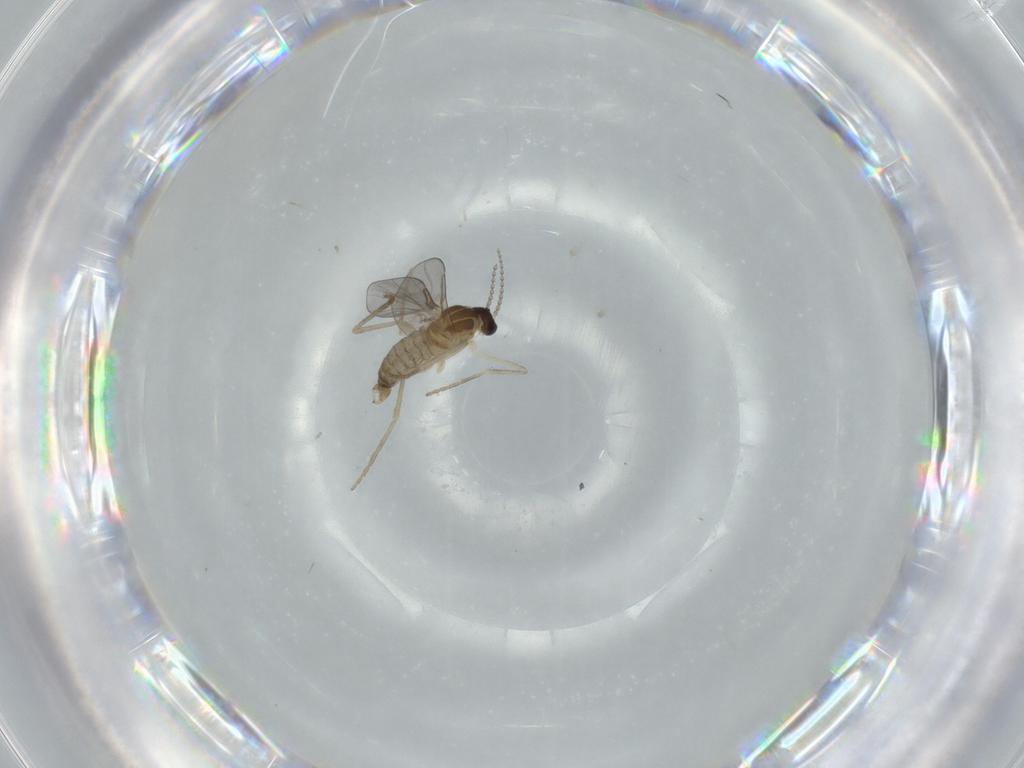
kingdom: Animalia
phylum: Arthropoda
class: Insecta
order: Diptera
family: Cecidomyiidae
